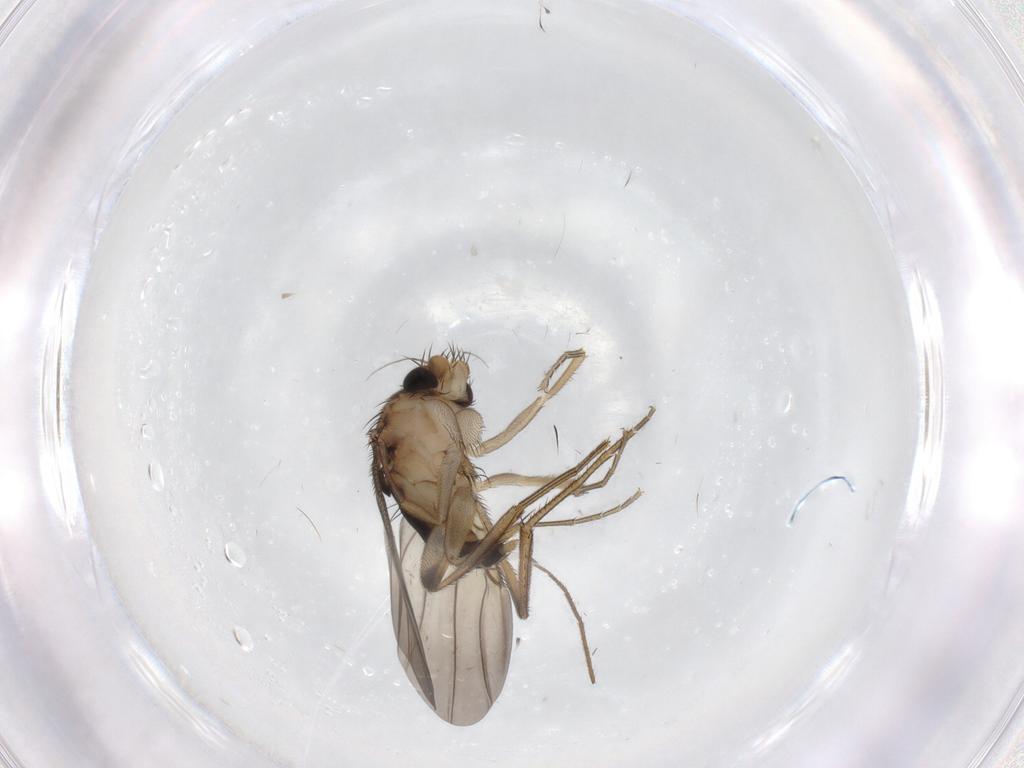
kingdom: Animalia
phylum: Arthropoda
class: Insecta
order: Diptera
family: Phoridae
